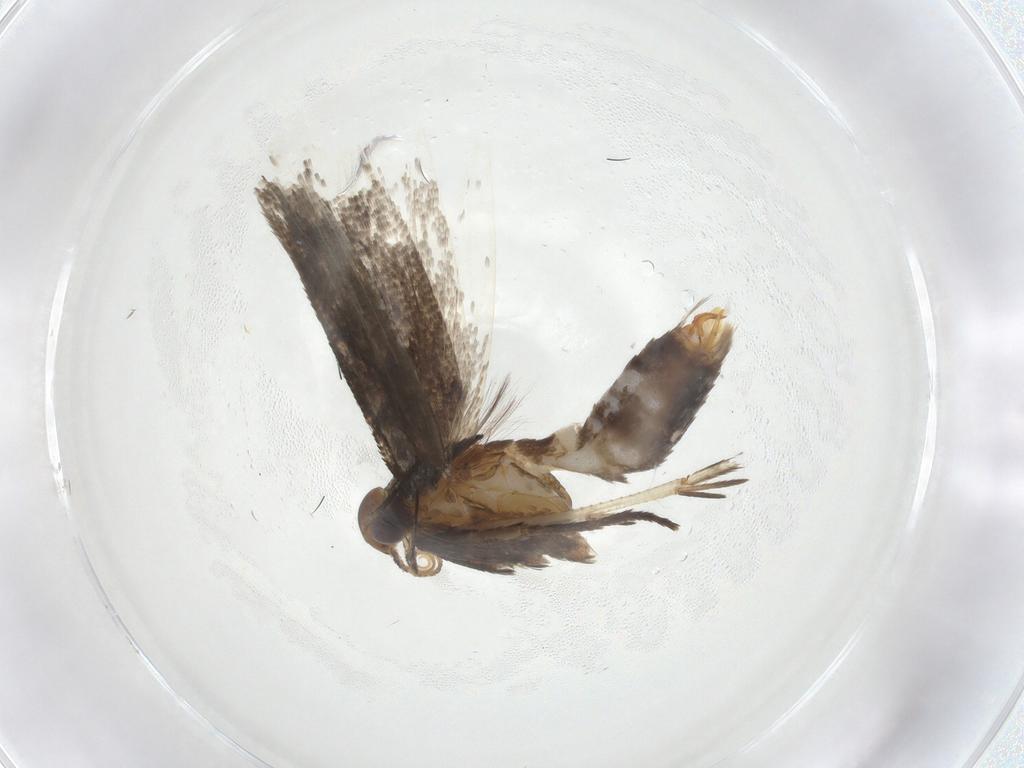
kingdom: Animalia
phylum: Arthropoda
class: Insecta
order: Lepidoptera
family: Gelechiidae
